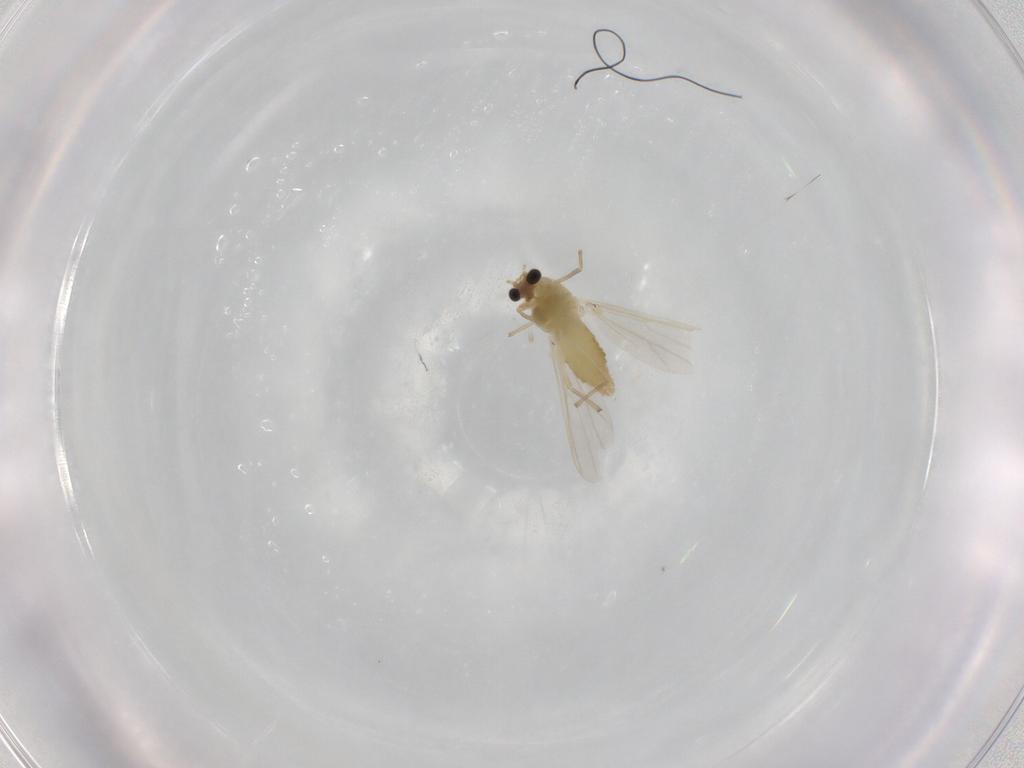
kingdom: Animalia
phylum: Arthropoda
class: Insecta
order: Diptera
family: Chironomidae
